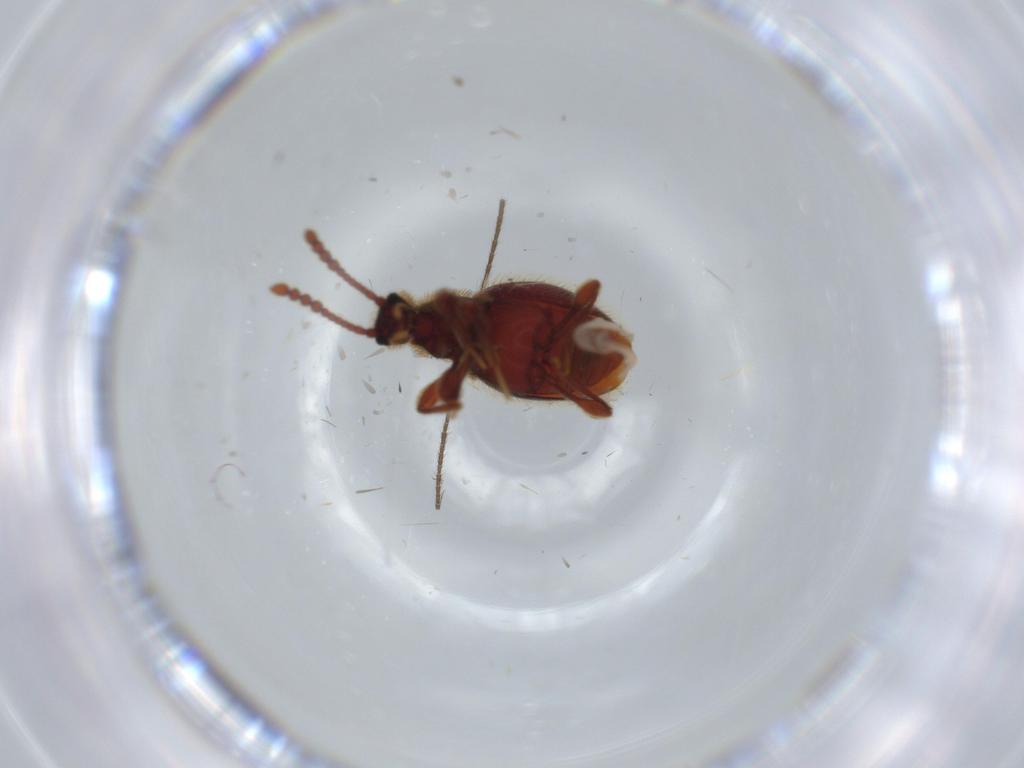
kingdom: Animalia
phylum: Arthropoda
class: Insecta
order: Coleoptera
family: Staphylinidae
